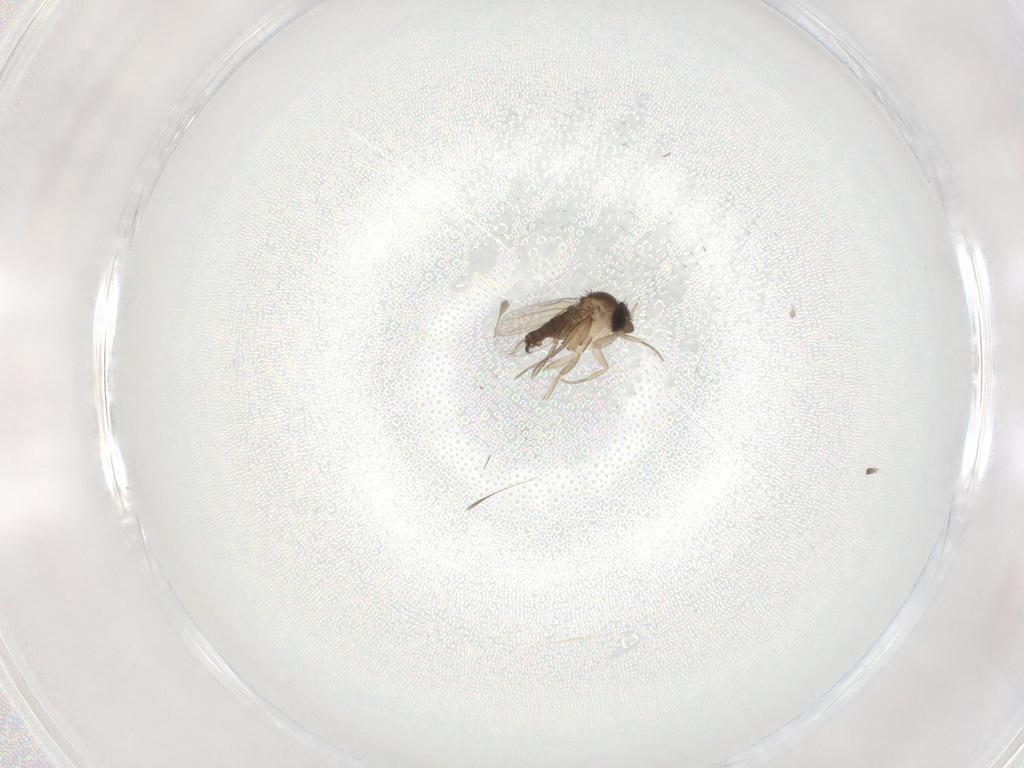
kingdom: Animalia
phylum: Arthropoda
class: Insecta
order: Diptera
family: Phoridae
